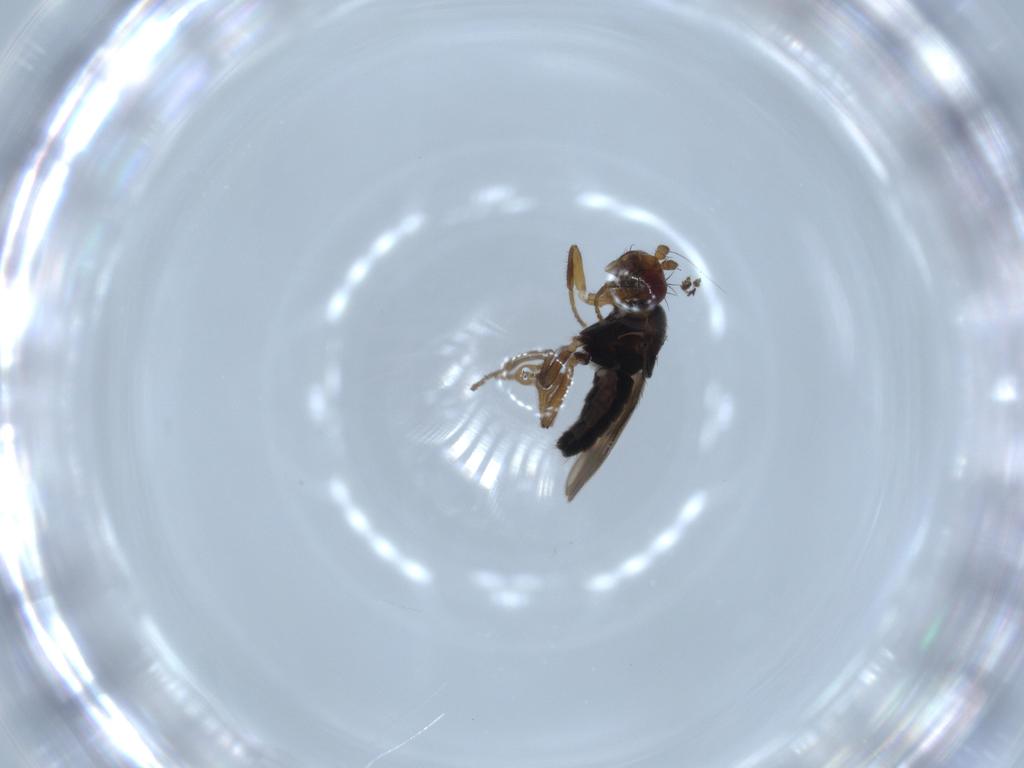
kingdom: Animalia
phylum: Arthropoda
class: Insecta
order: Diptera
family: Sphaeroceridae
